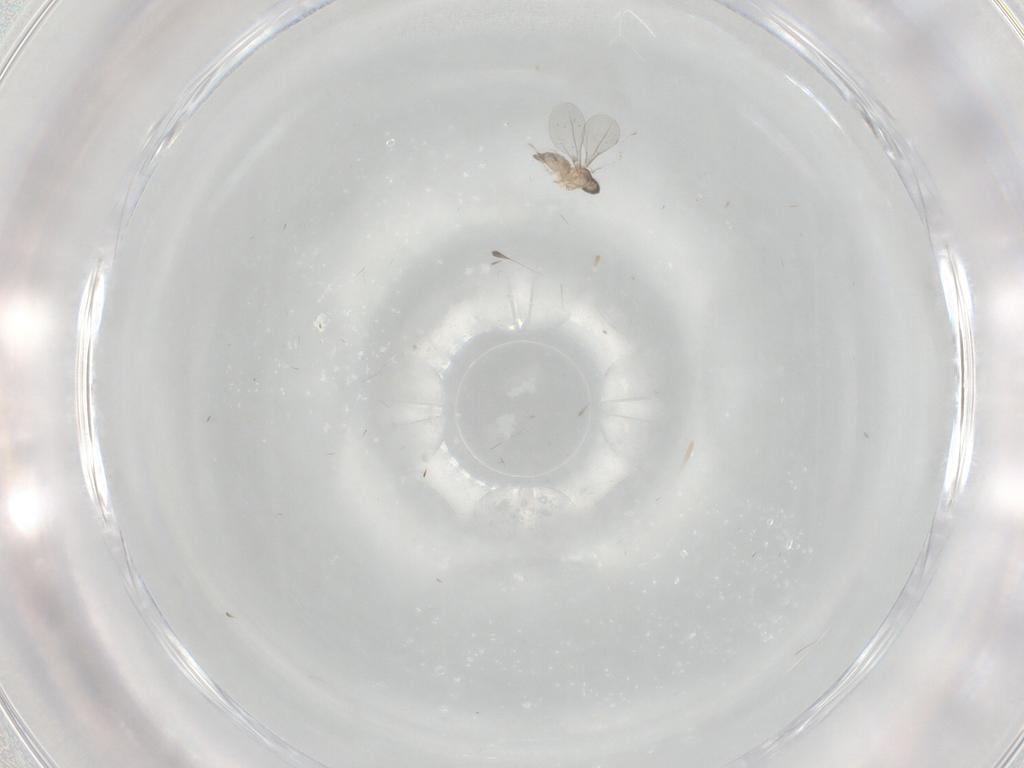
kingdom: Animalia
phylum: Arthropoda
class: Insecta
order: Diptera
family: Cecidomyiidae
